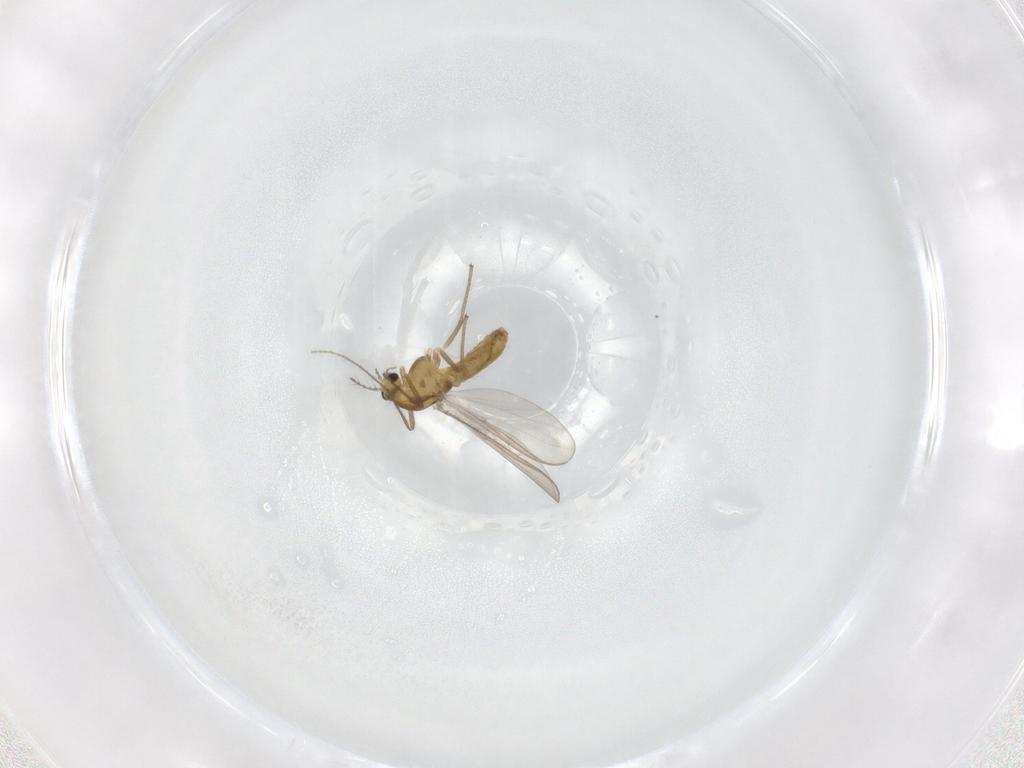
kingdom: Animalia
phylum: Arthropoda
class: Insecta
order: Diptera
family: Chironomidae
